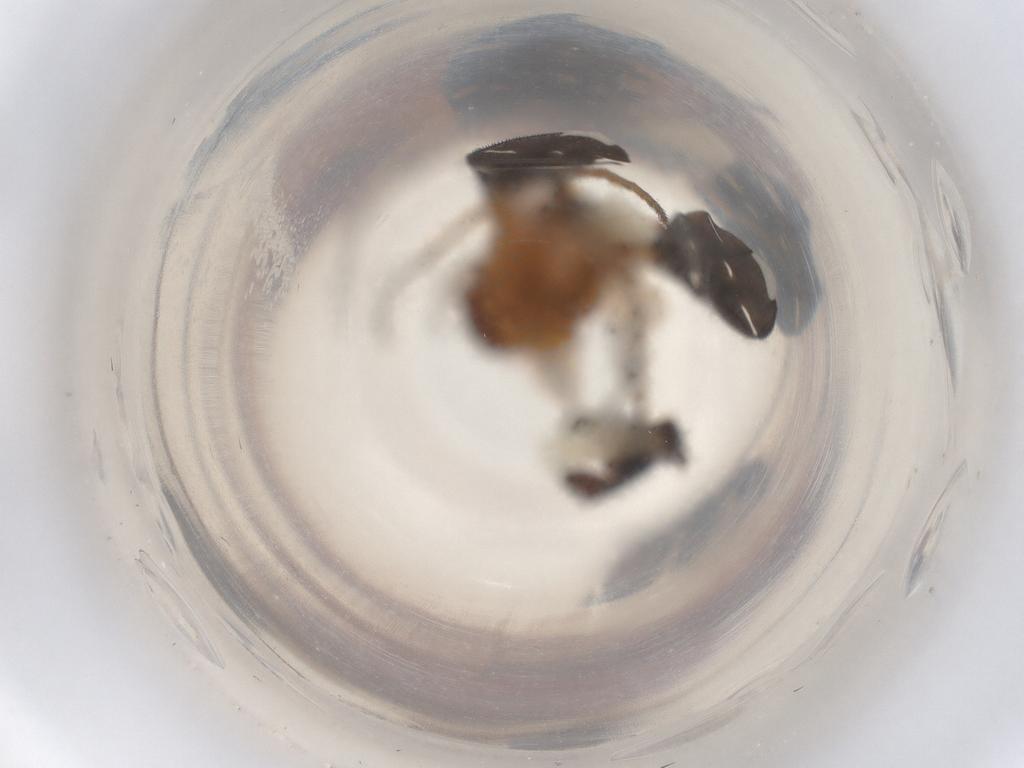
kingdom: Animalia
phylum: Arthropoda
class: Insecta
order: Diptera
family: Ephydridae
